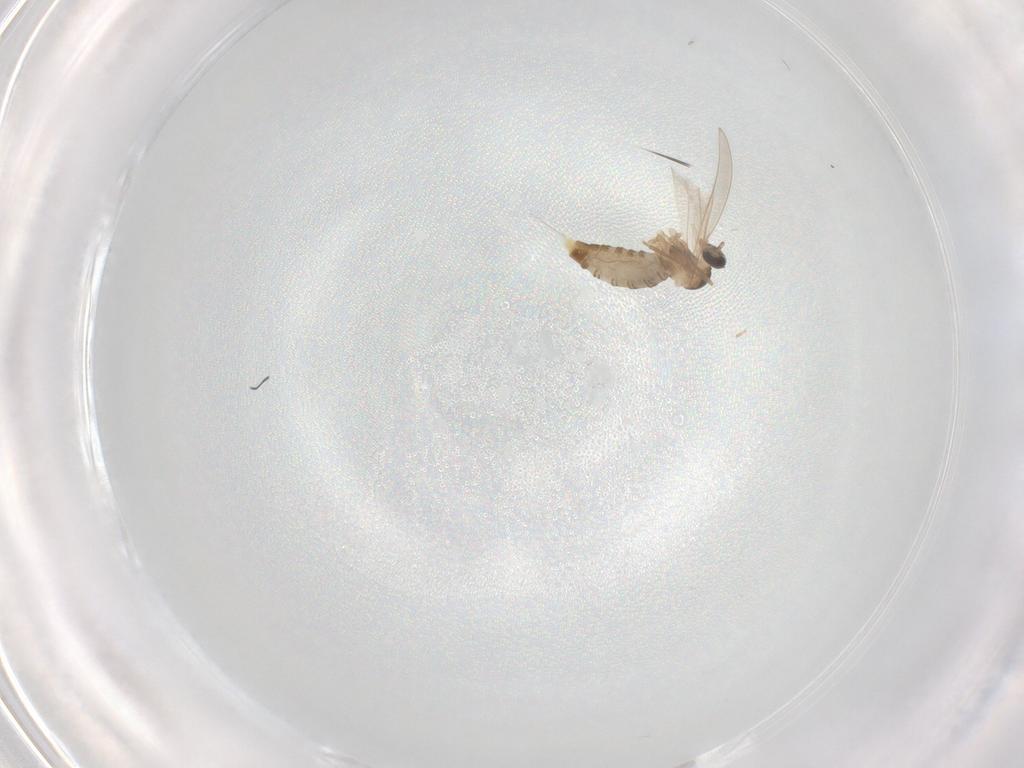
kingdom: Animalia
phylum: Arthropoda
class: Insecta
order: Diptera
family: Cecidomyiidae
